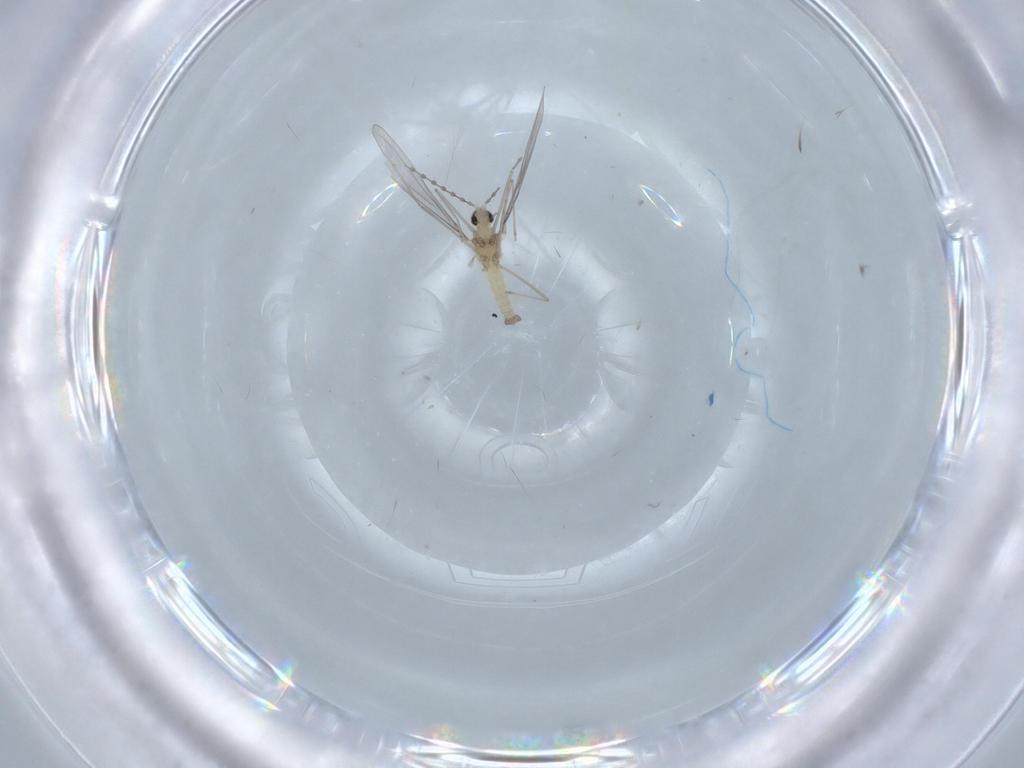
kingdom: Animalia
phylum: Arthropoda
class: Insecta
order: Diptera
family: Cecidomyiidae
